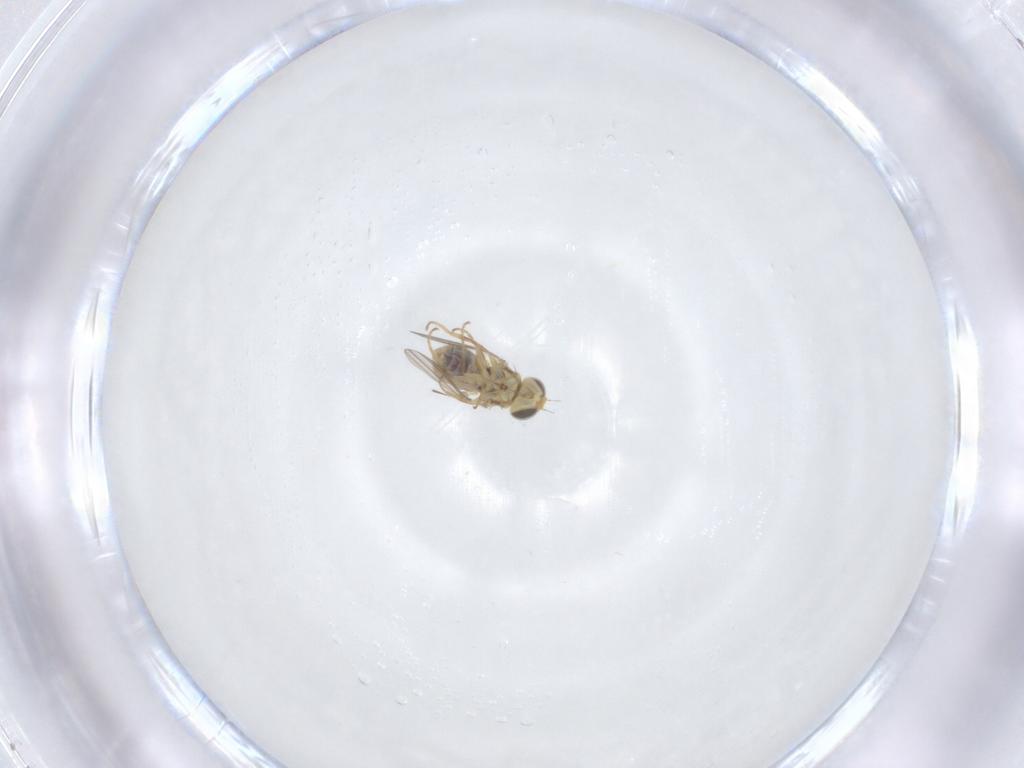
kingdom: Animalia
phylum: Arthropoda
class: Insecta
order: Diptera
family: Chyromyidae
